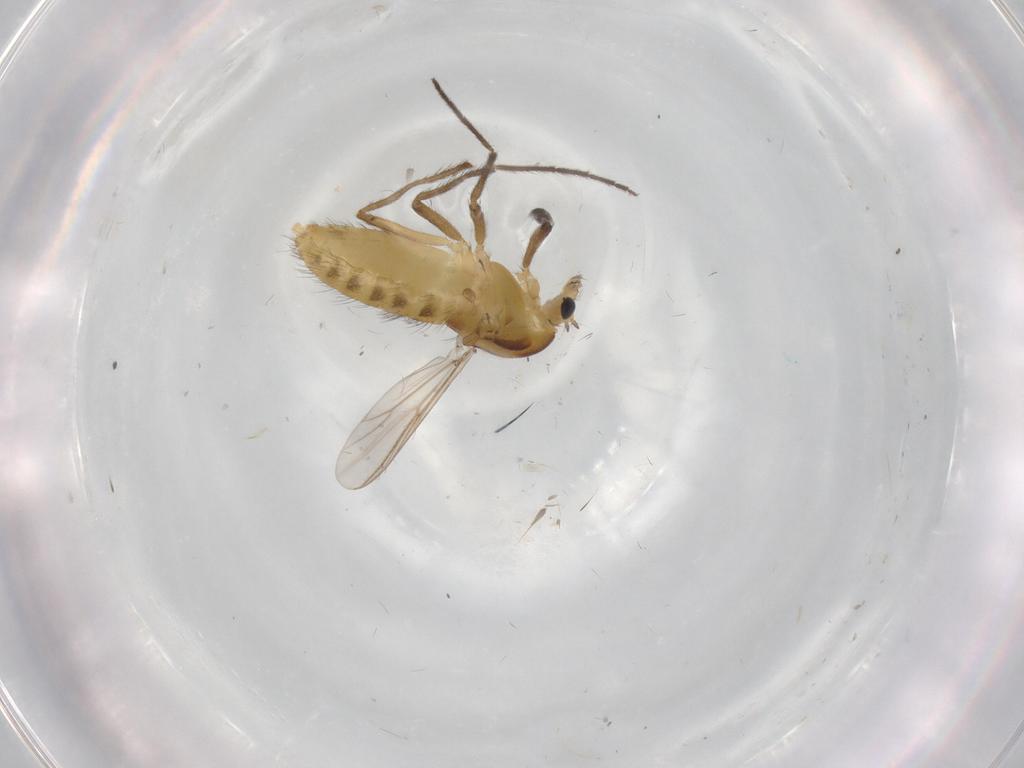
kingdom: Animalia
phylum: Arthropoda
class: Insecta
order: Diptera
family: Chironomidae
